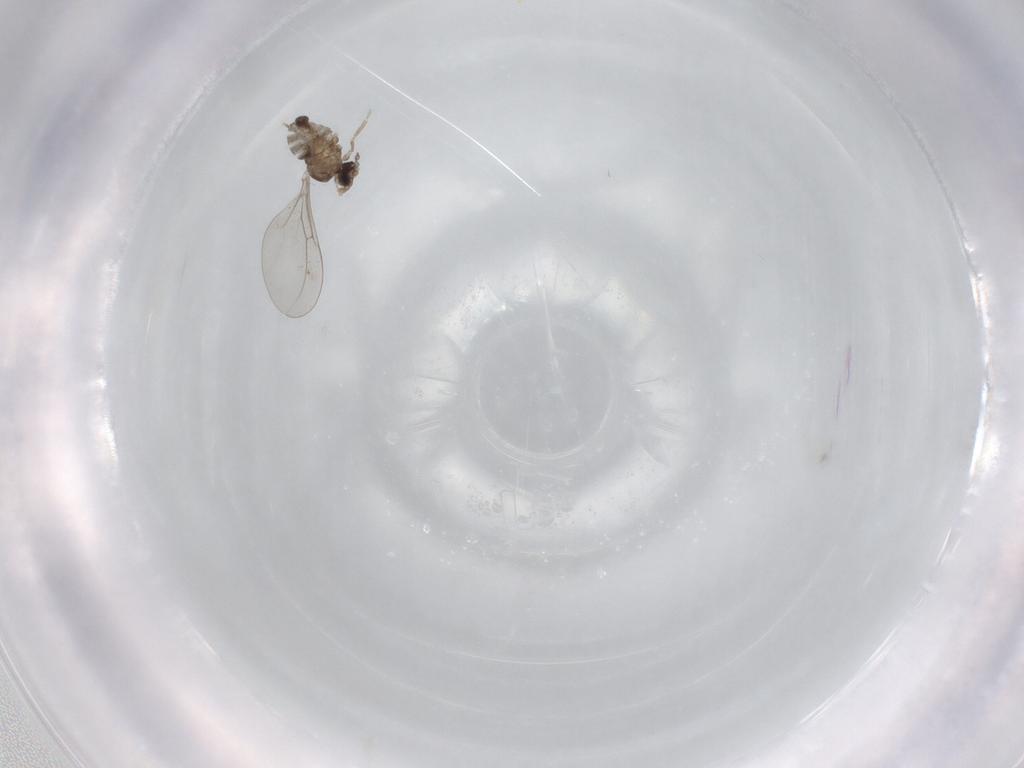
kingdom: Animalia
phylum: Arthropoda
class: Insecta
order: Diptera
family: Cecidomyiidae
